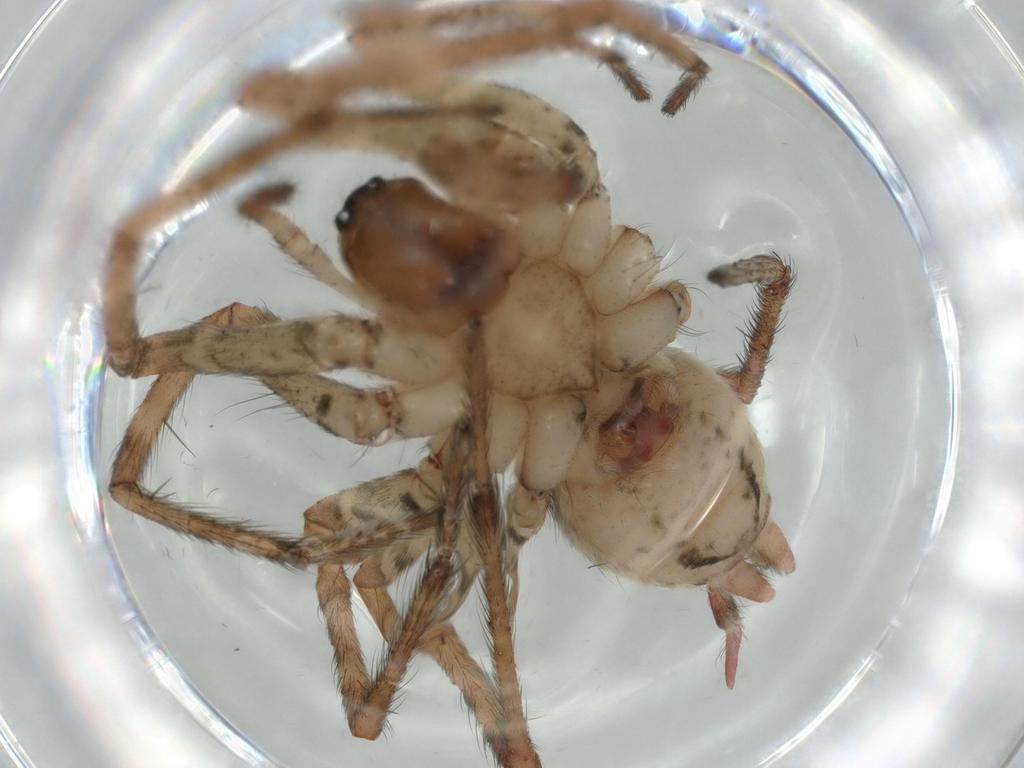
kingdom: Animalia
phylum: Arthropoda
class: Arachnida
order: Araneae
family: Agelenidae
